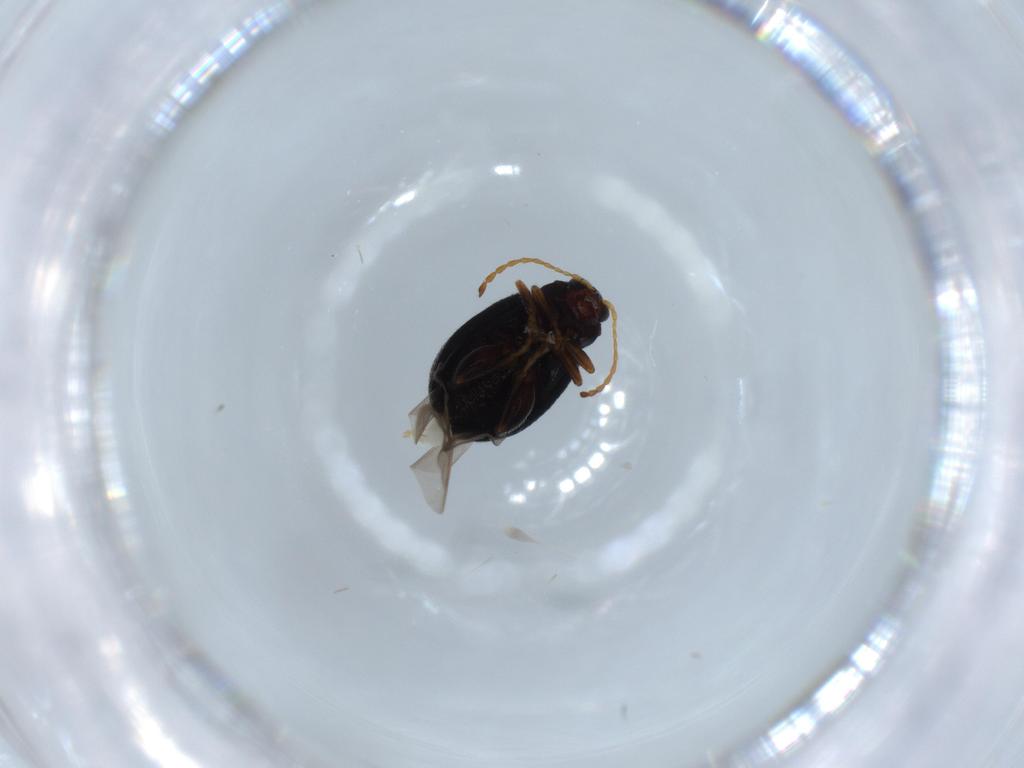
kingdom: Animalia
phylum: Arthropoda
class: Insecta
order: Coleoptera
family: Chrysomelidae
